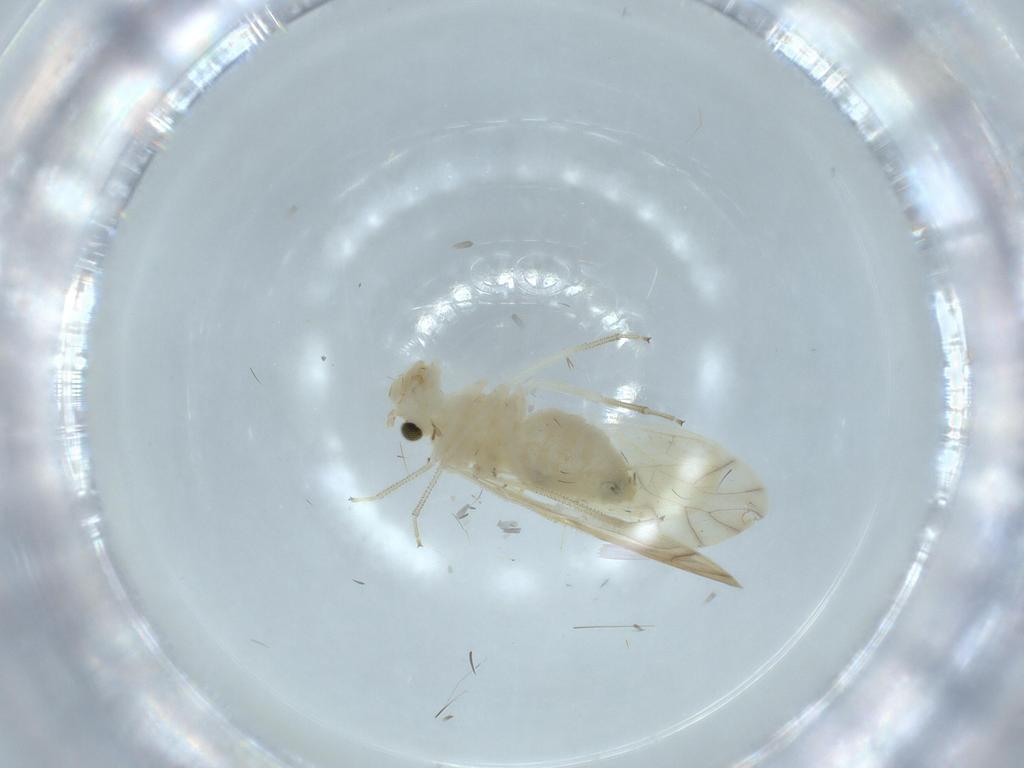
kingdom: Animalia
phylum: Arthropoda
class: Insecta
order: Psocodea
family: Caeciliusidae
